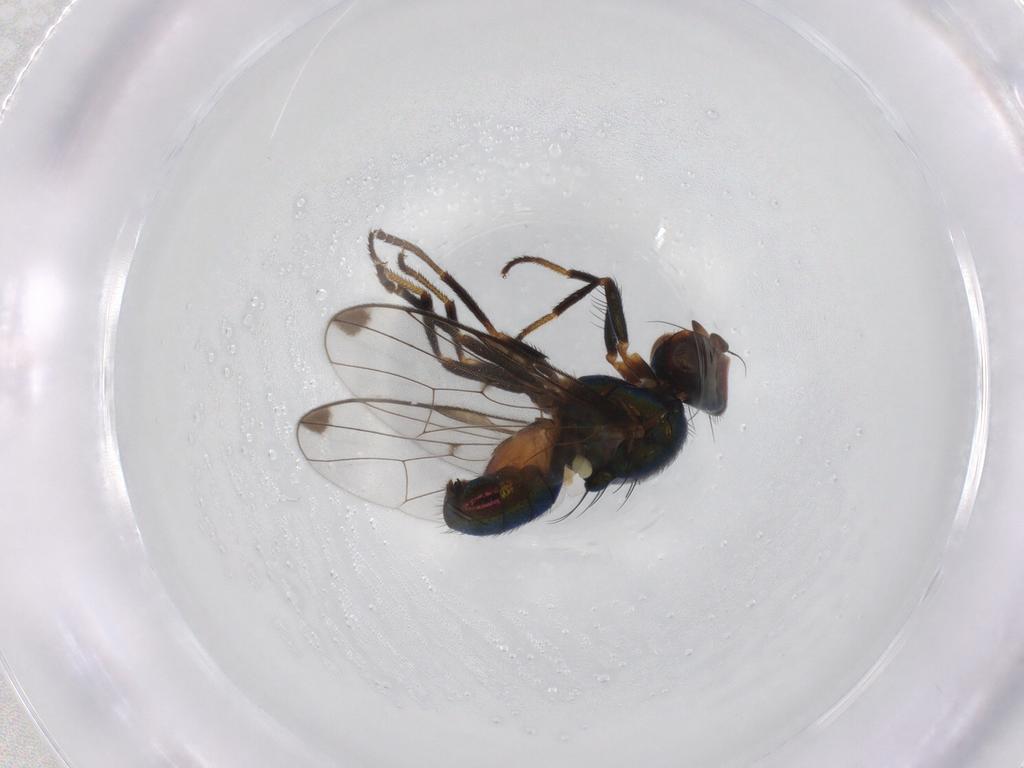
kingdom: Animalia
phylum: Arthropoda
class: Insecta
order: Diptera
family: Platystomatidae
